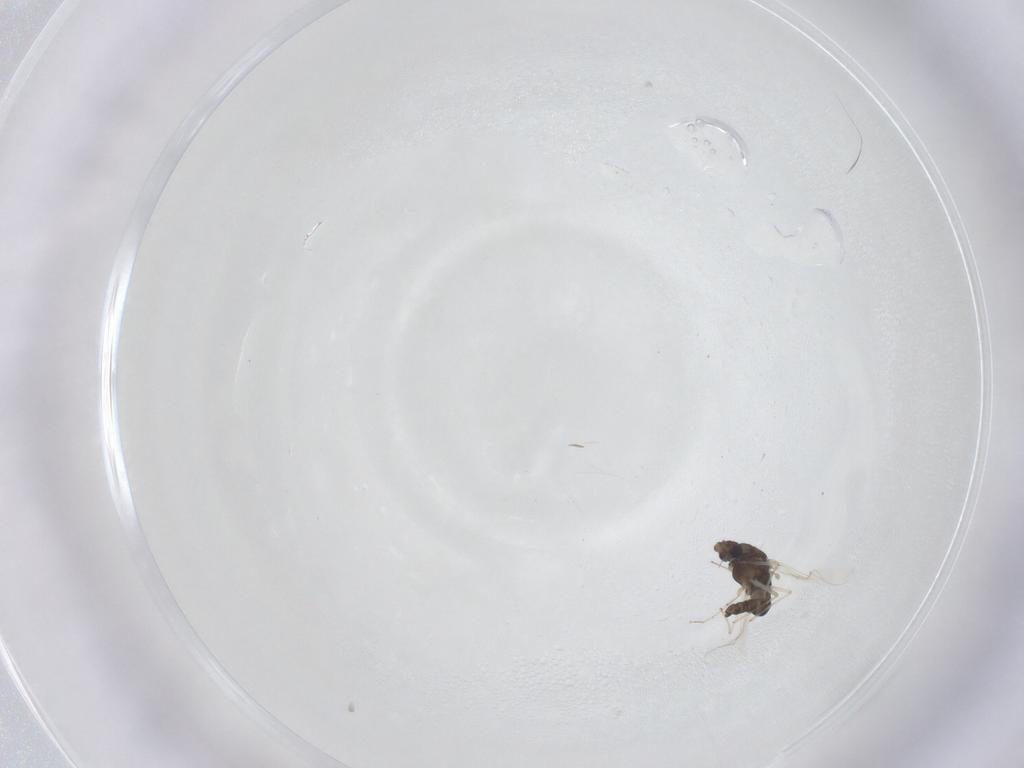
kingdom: Animalia
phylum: Arthropoda
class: Insecta
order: Diptera
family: Chironomidae
